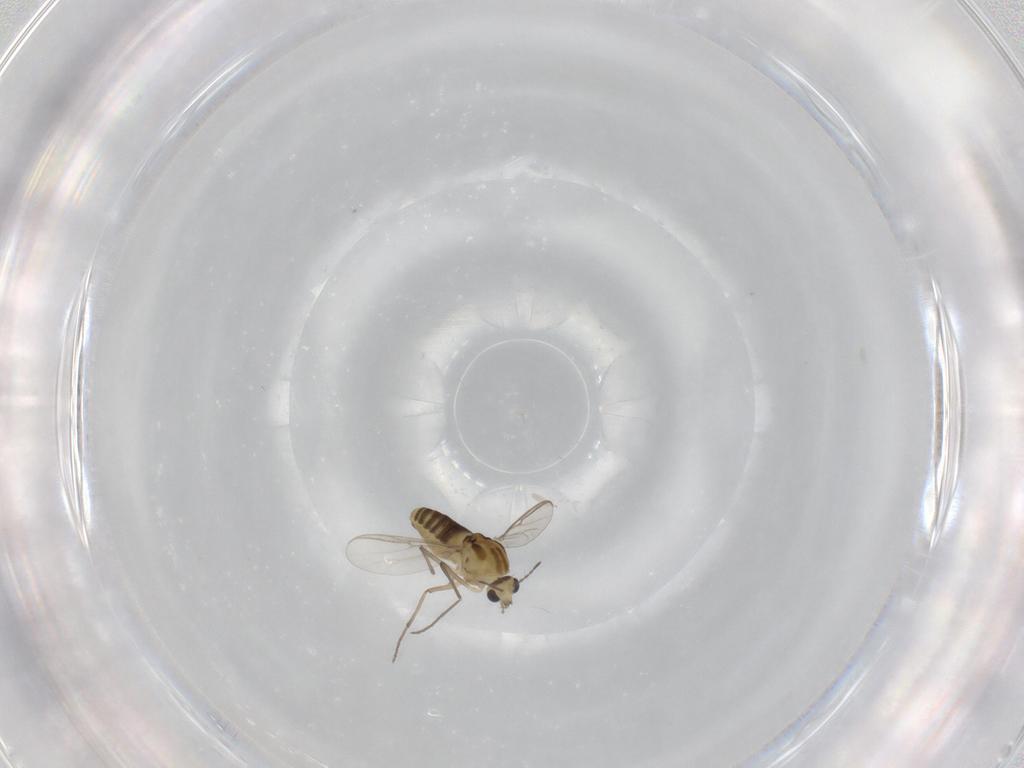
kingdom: Animalia
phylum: Arthropoda
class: Insecta
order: Diptera
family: Chironomidae
